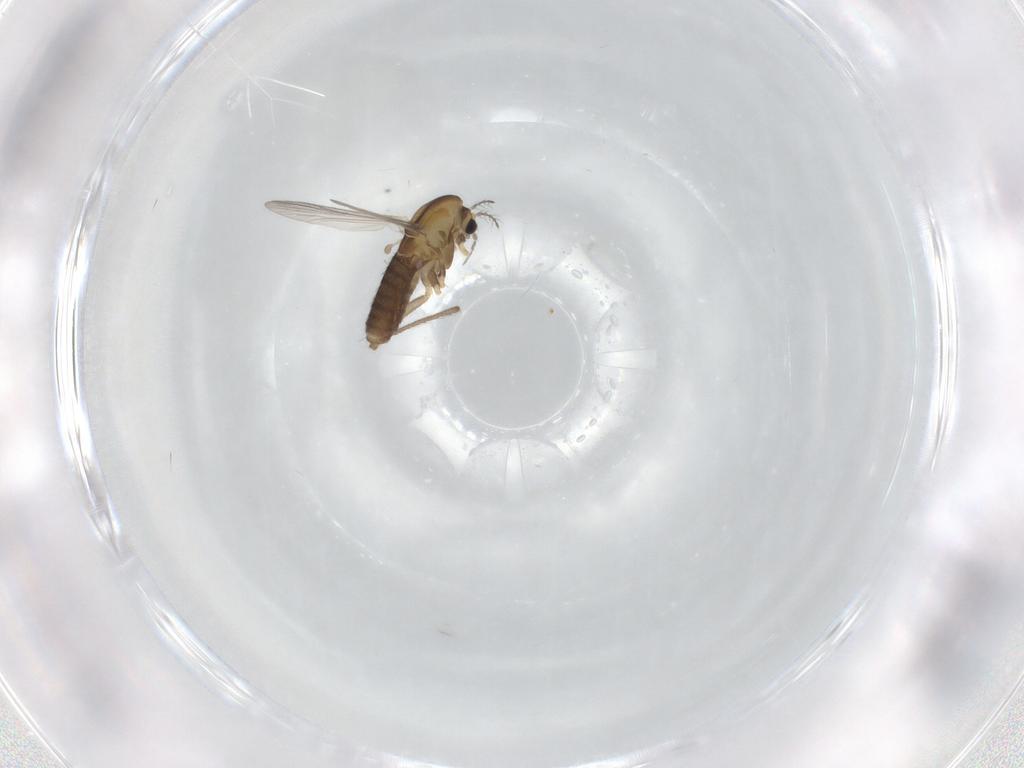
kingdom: Animalia
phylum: Arthropoda
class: Insecta
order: Diptera
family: Chironomidae
